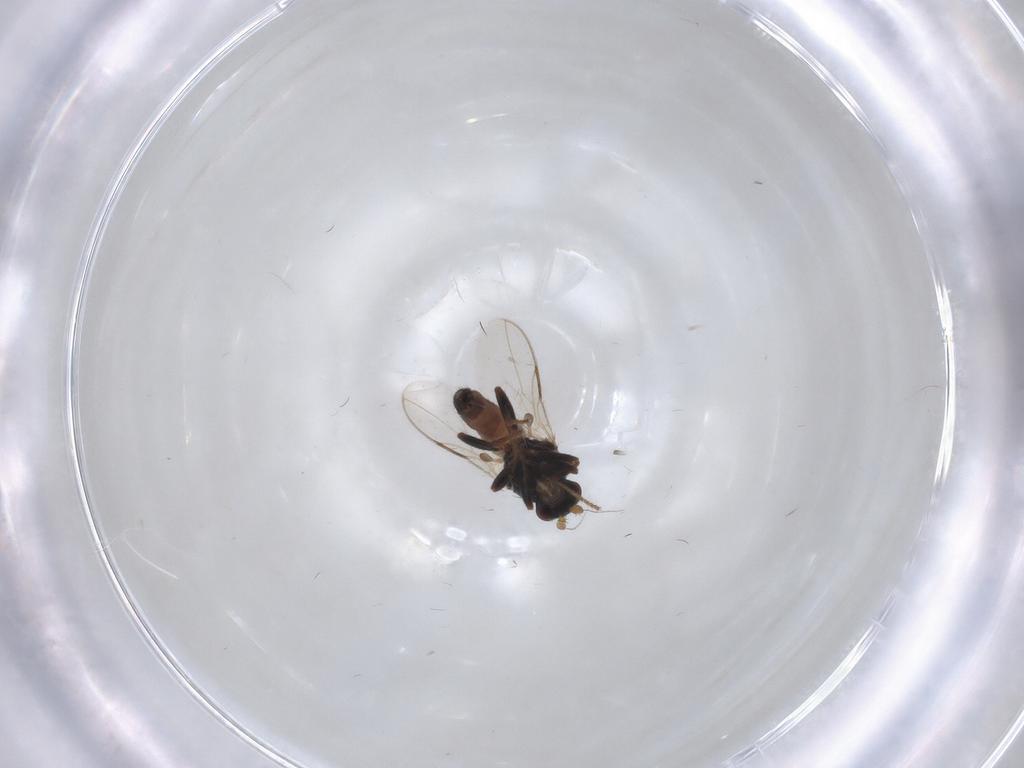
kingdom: Animalia
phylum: Arthropoda
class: Insecta
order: Diptera
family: Sphaeroceridae
